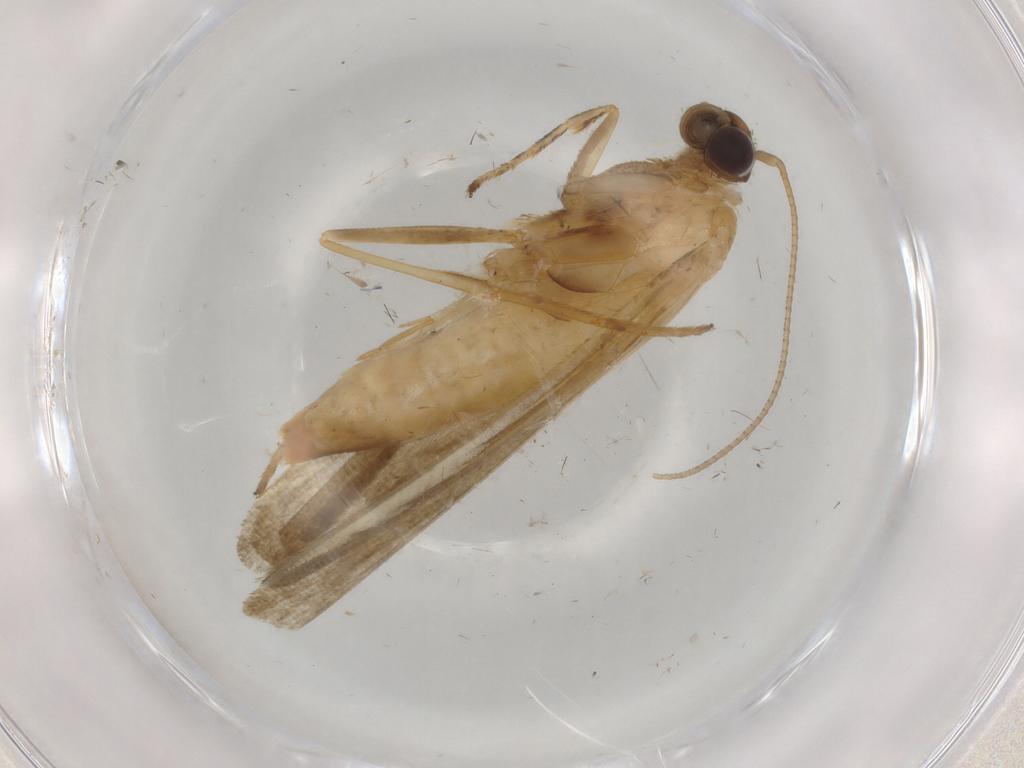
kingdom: Animalia
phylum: Arthropoda
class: Insecta
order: Lepidoptera
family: Noctuidae
